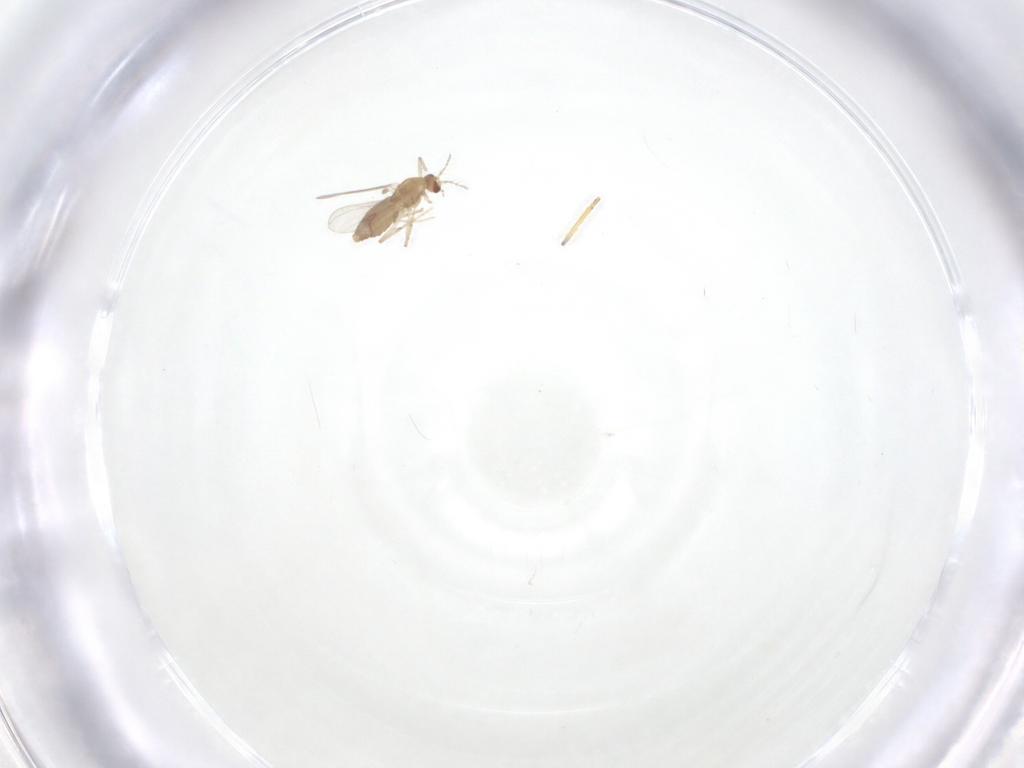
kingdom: Animalia
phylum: Arthropoda
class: Insecta
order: Diptera
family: Chironomidae
